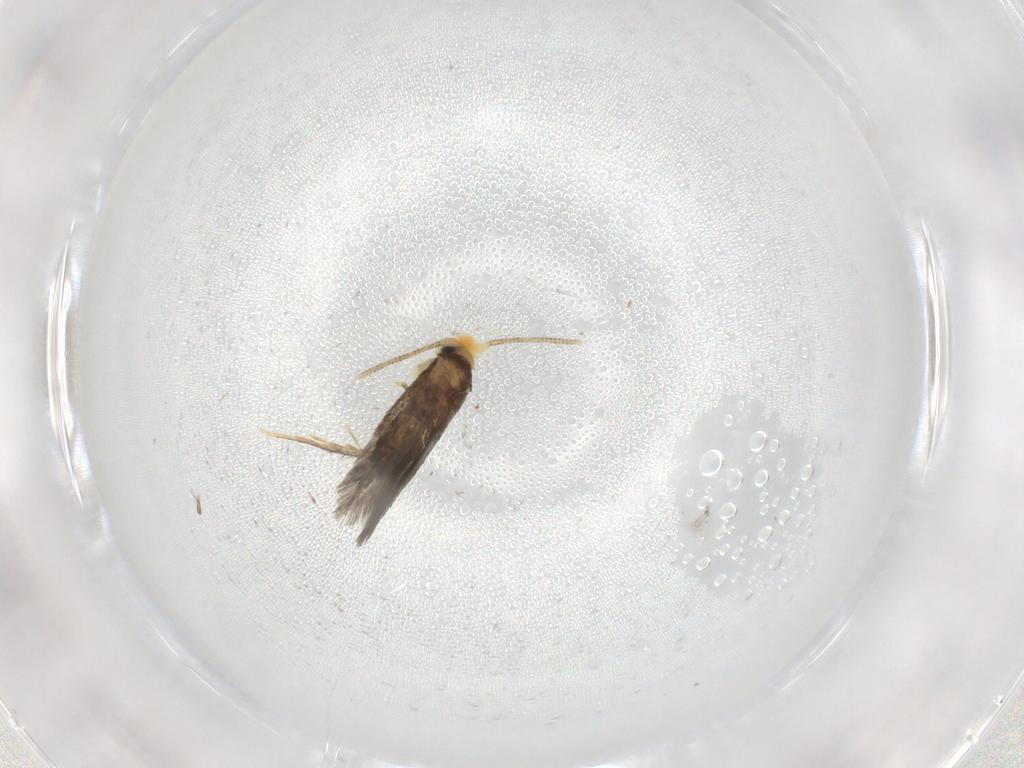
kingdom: Animalia
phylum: Arthropoda
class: Insecta
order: Lepidoptera
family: Nepticulidae
